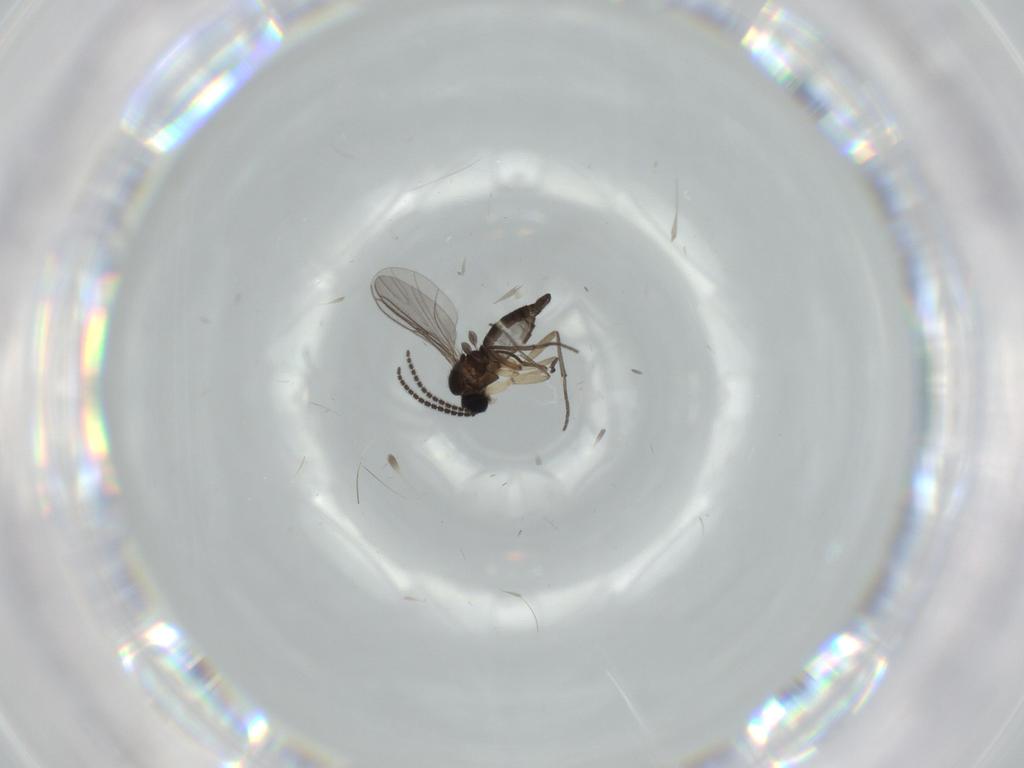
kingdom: Animalia
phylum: Arthropoda
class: Insecta
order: Diptera
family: Sciaridae
